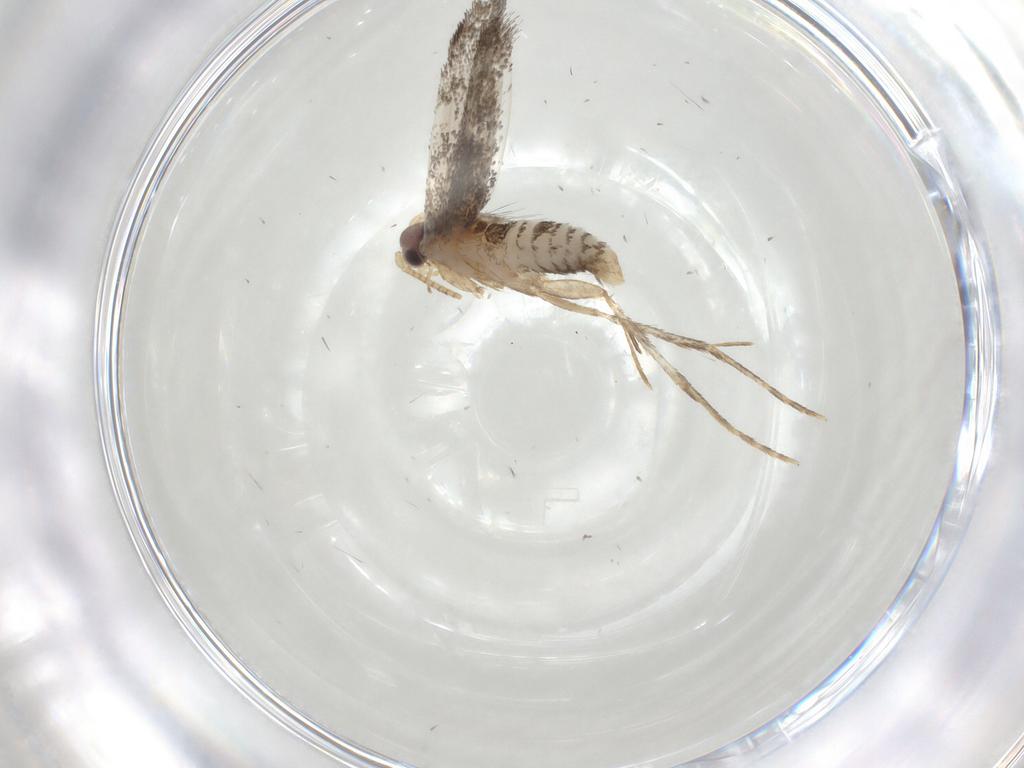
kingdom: Animalia
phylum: Arthropoda
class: Insecta
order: Lepidoptera
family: Tineidae
